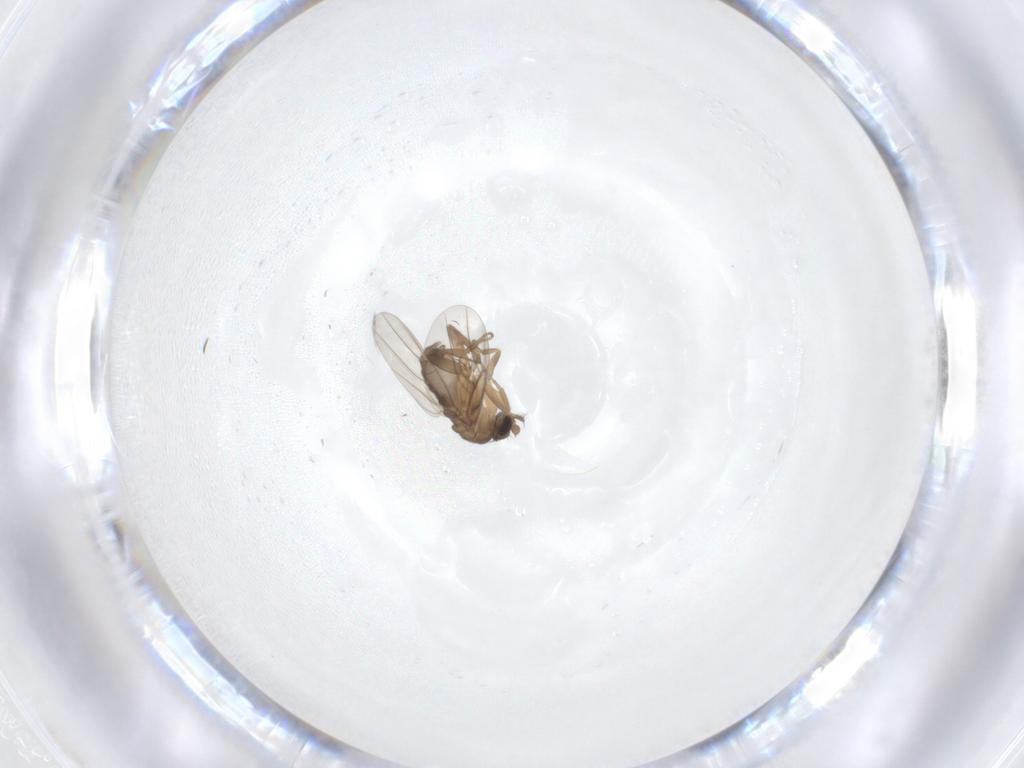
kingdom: Animalia
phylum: Arthropoda
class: Insecta
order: Diptera
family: Phoridae
